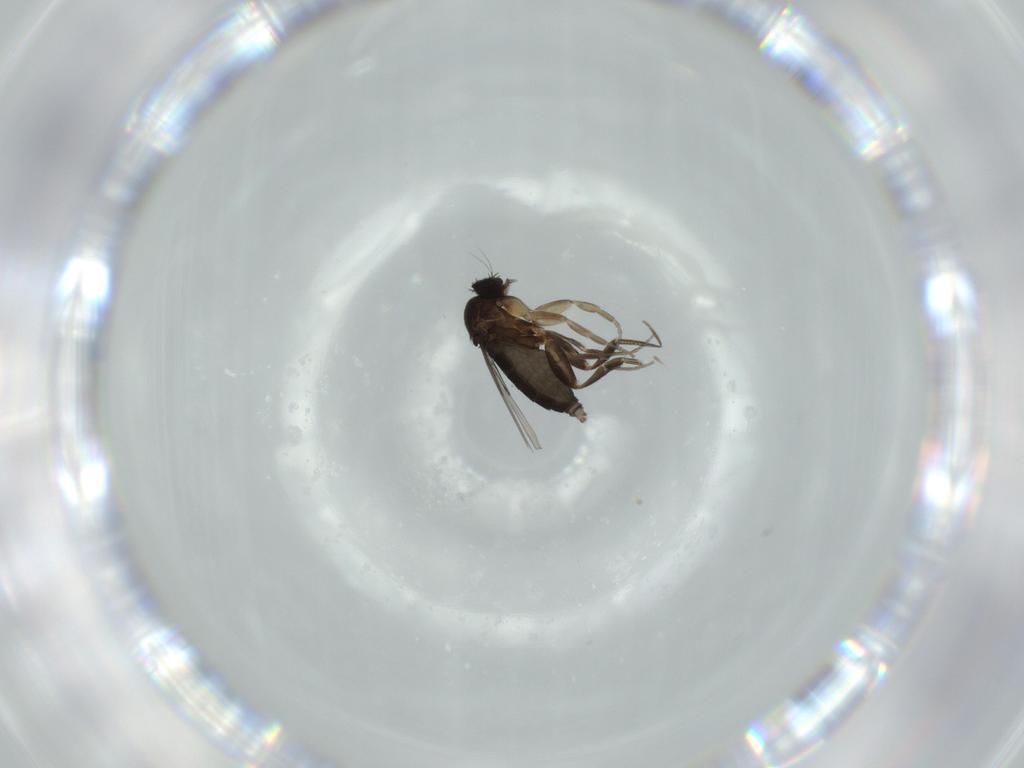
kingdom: Animalia
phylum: Arthropoda
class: Insecta
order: Diptera
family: Phoridae
